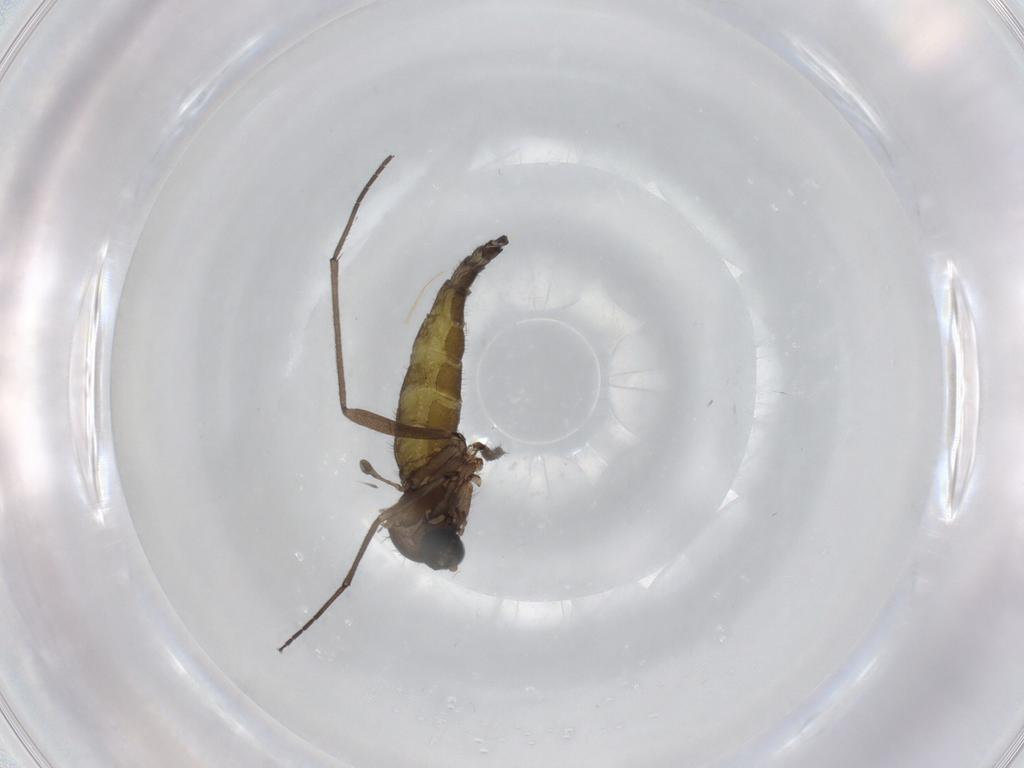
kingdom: Animalia
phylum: Arthropoda
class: Insecta
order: Diptera
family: Chironomidae
